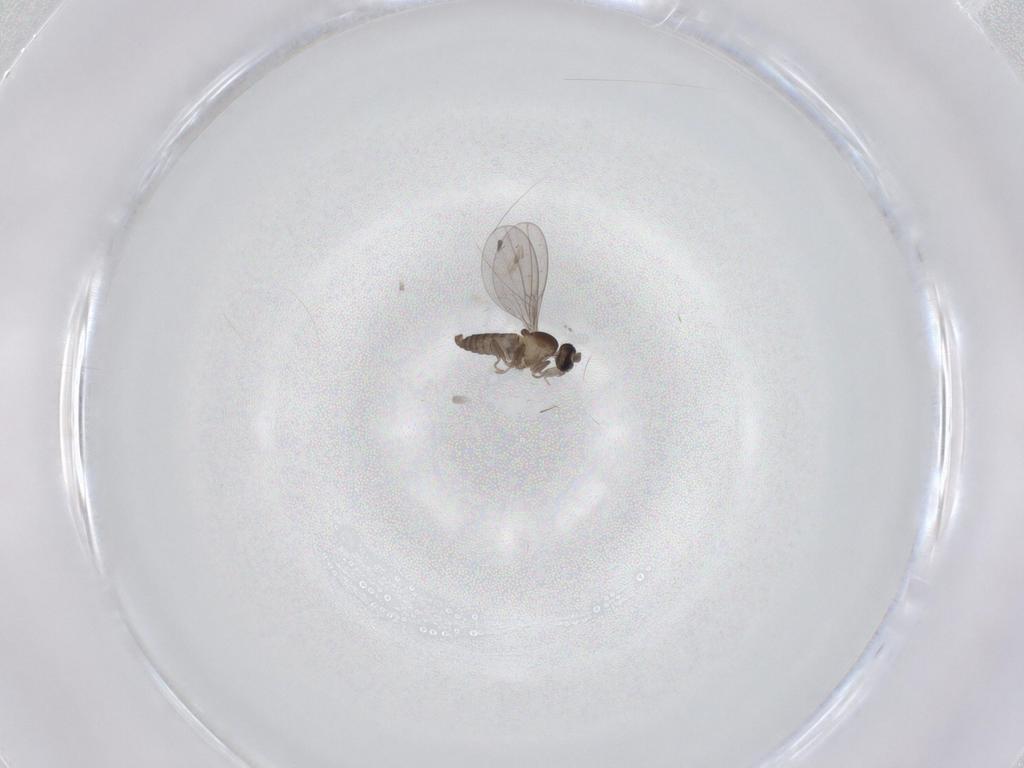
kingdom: Animalia
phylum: Arthropoda
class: Insecta
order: Diptera
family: Cecidomyiidae
